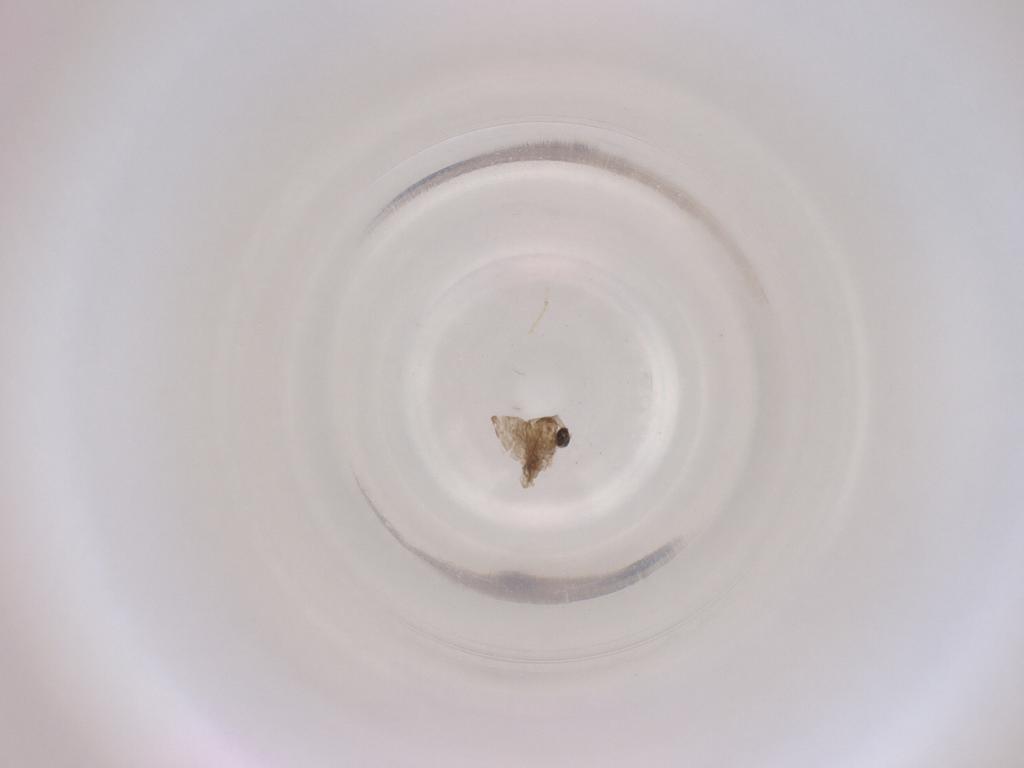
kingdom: Animalia
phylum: Arthropoda
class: Insecta
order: Diptera
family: Cecidomyiidae
